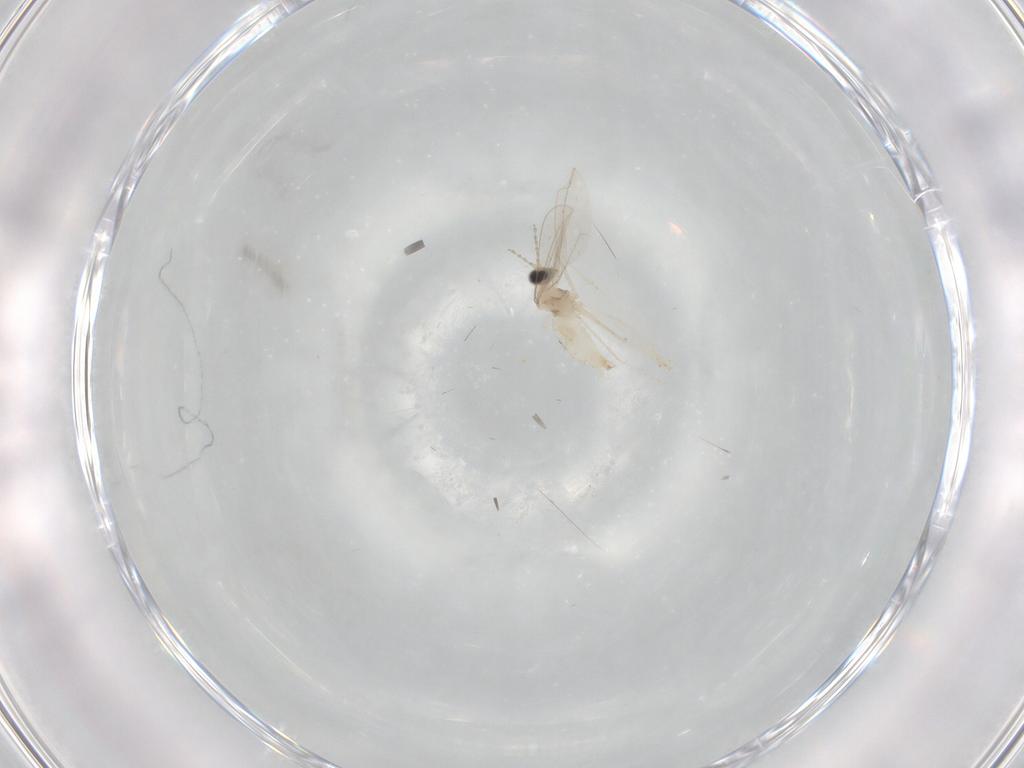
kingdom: Animalia
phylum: Arthropoda
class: Insecta
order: Diptera
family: Cecidomyiidae
